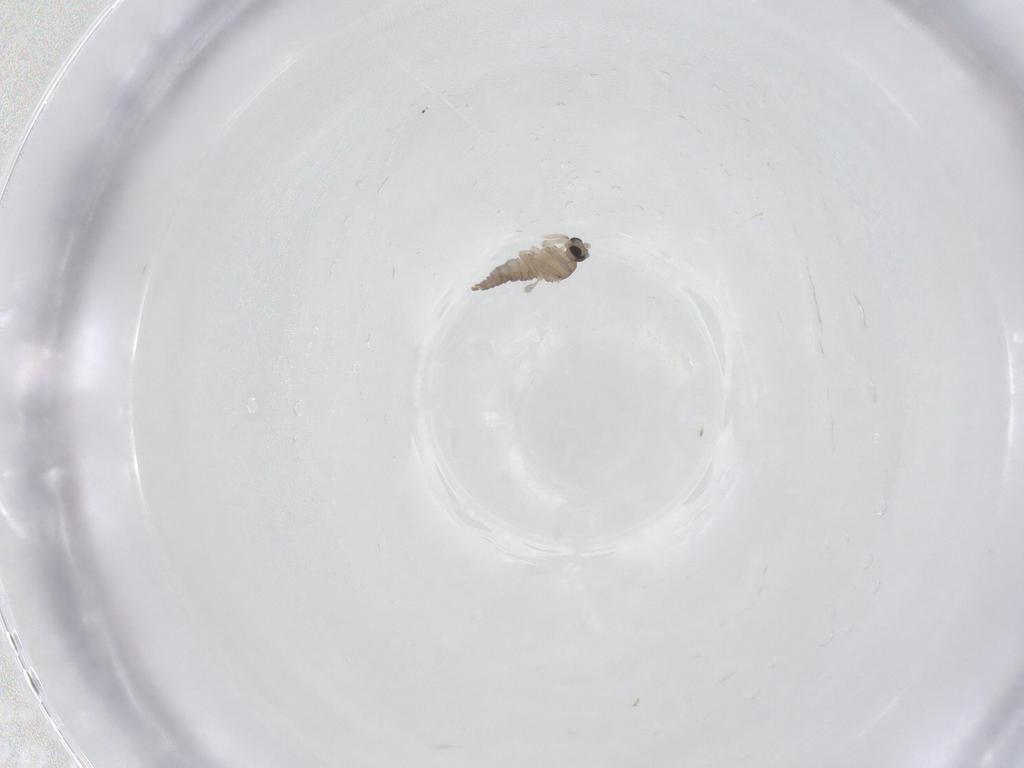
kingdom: Animalia
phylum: Arthropoda
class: Insecta
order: Diptera
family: Cecidomyiidae
